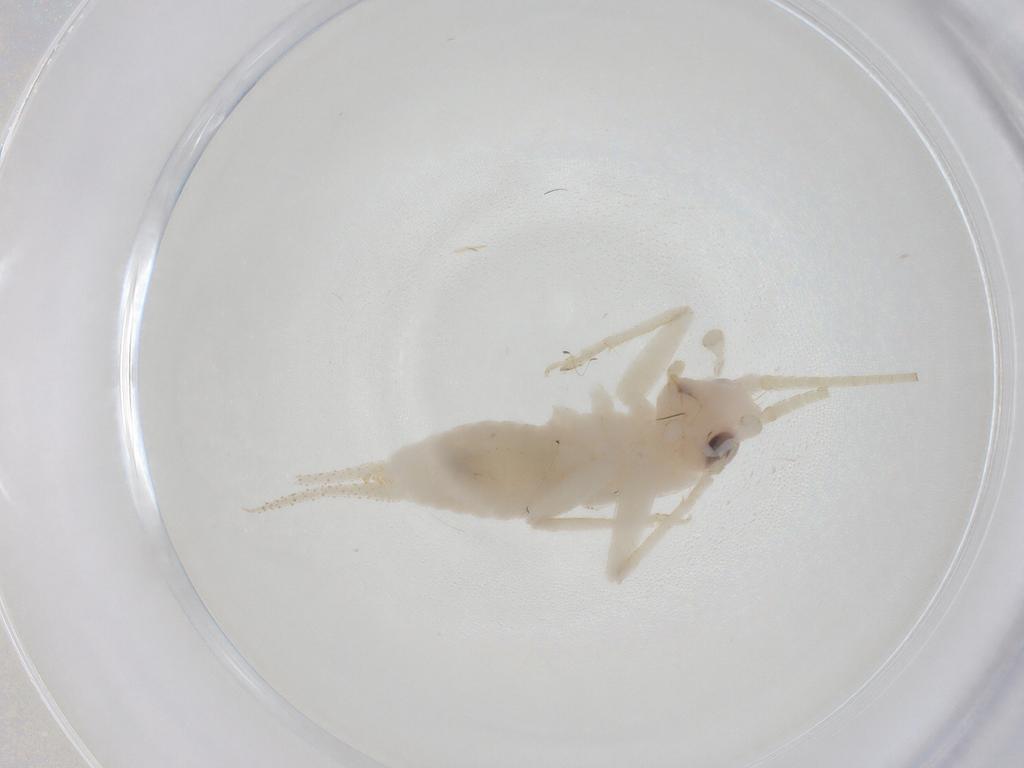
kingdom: Animalia
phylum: Arthropoda
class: Insecta
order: Orthoptera
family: Trigonidiidae
